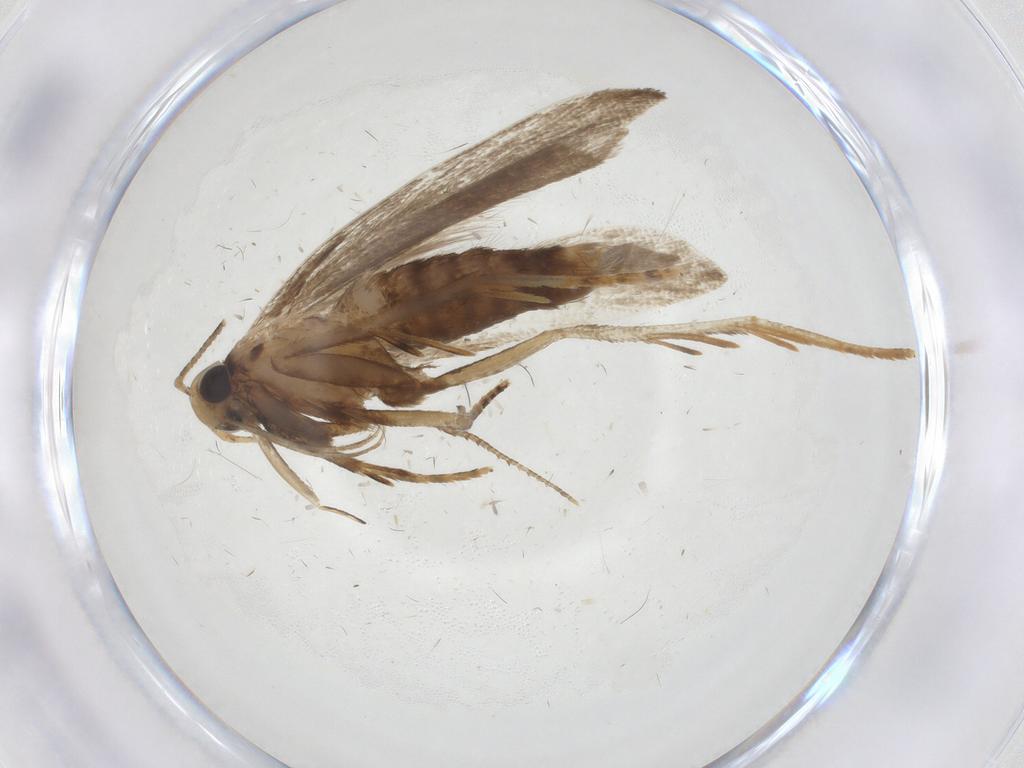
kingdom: Animalia
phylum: Arthropoda
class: Insecta
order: Lepidoptera
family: Gelechiidae
